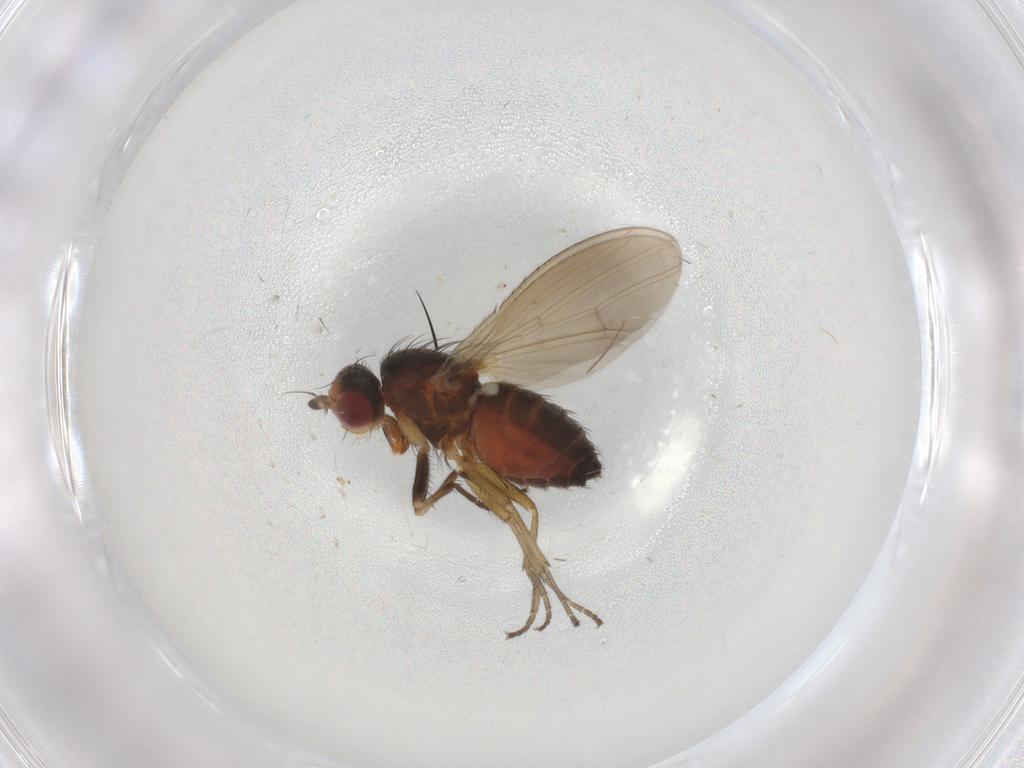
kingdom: Animalia
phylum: Arthropoda
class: Insecta
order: Diptera
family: Heleomyzidae
